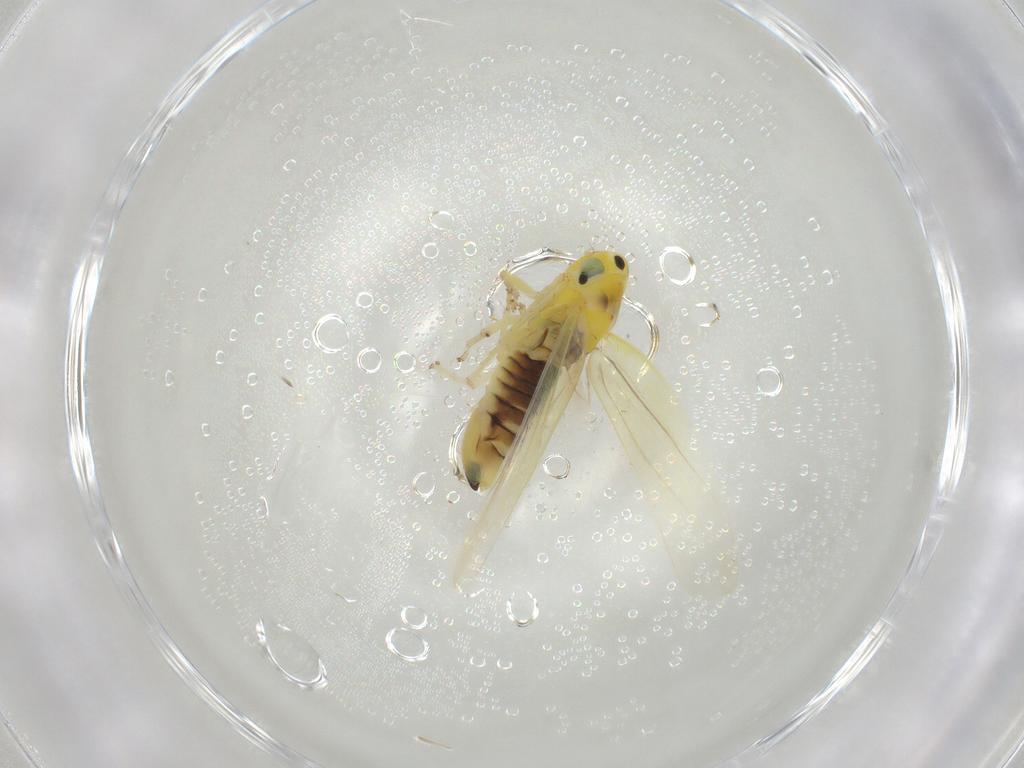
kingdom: Animalia
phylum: Arthropoda
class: Insecta
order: Hemiptera
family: Cicadellidae
